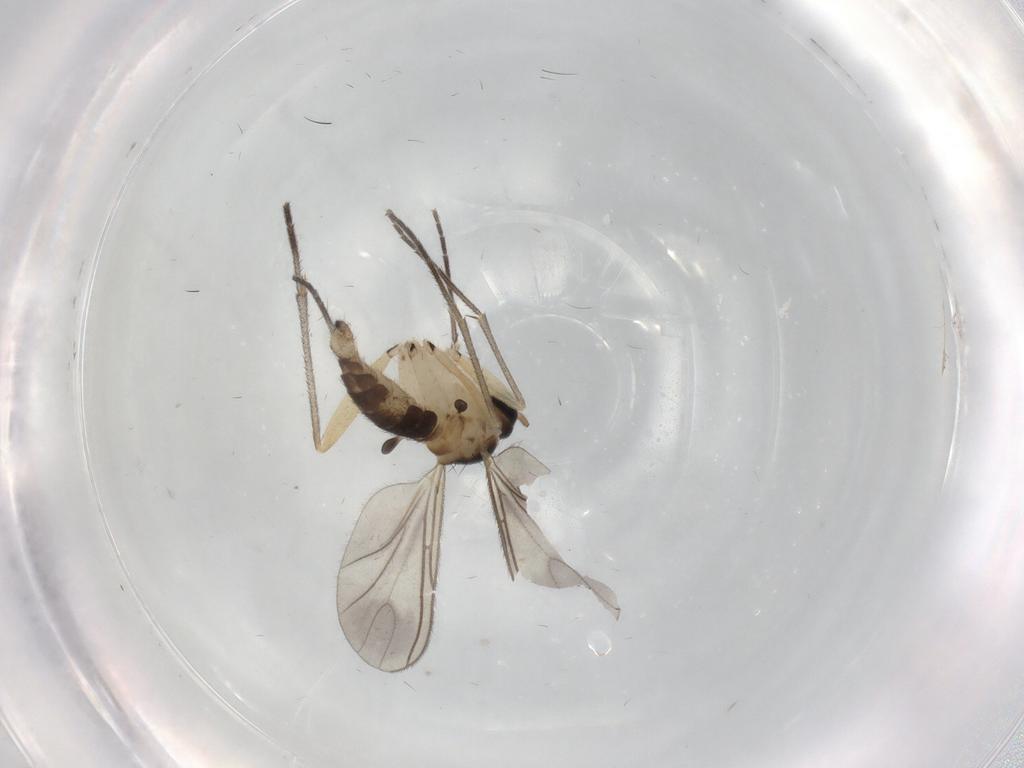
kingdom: Animalia
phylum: Arthropoda
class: Insecta
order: Diptera
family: Sciaridae
